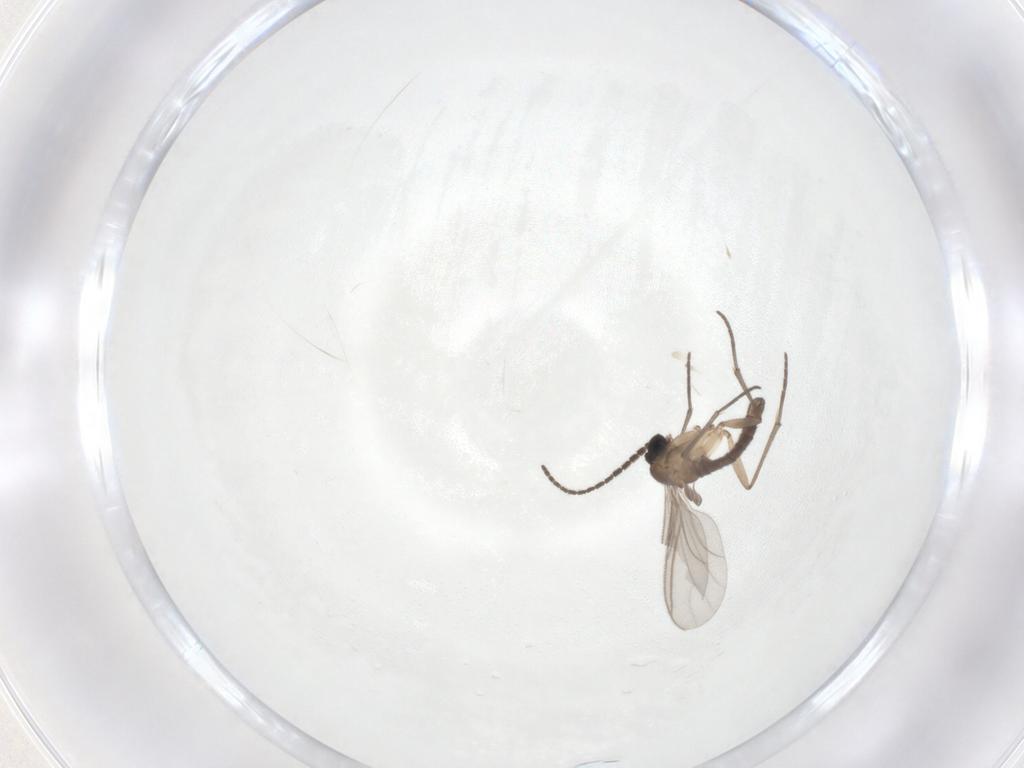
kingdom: Animalia
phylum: Arthropoda
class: Insecta
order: Diptera
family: Sciaridae
